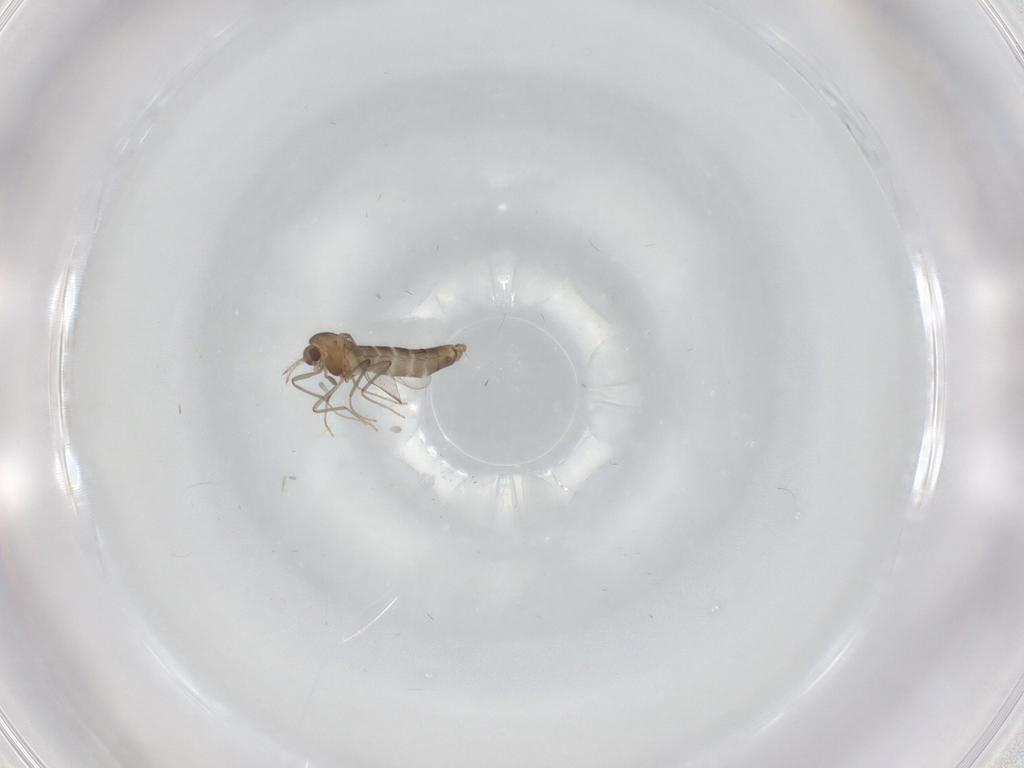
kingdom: Animalia
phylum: Arthropoda
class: Insecta
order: Diptera
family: Chironomidae
